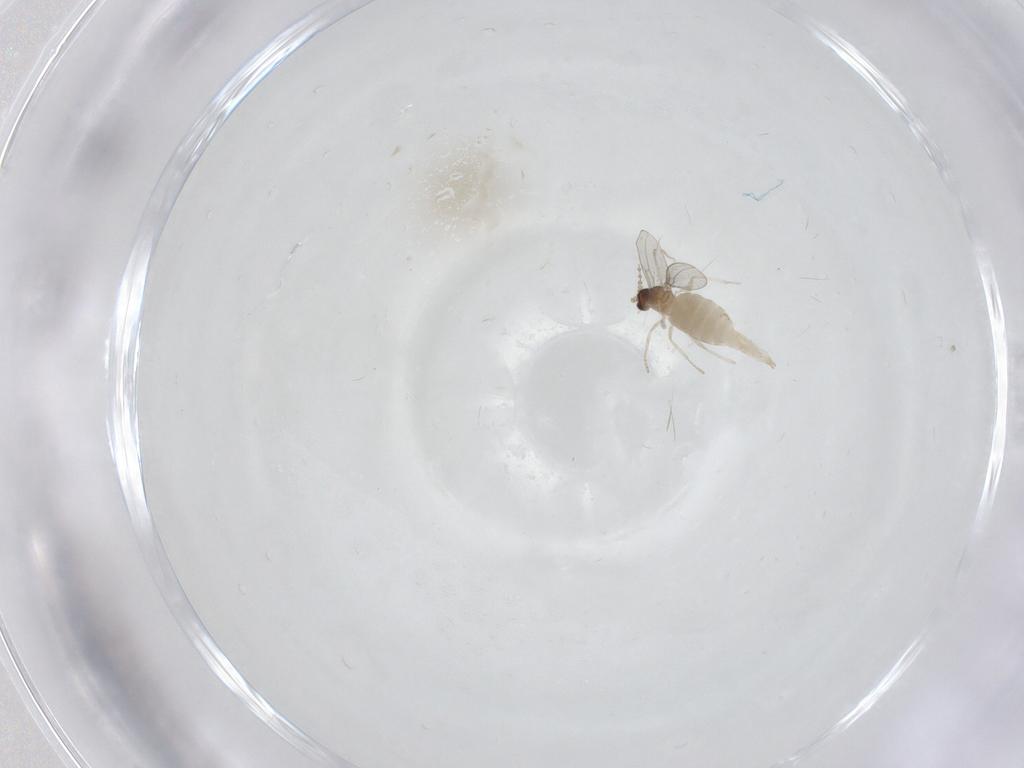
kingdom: Animalia
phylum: Arthropoda
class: Insecta
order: Diptera
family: Cecidomyiidae
